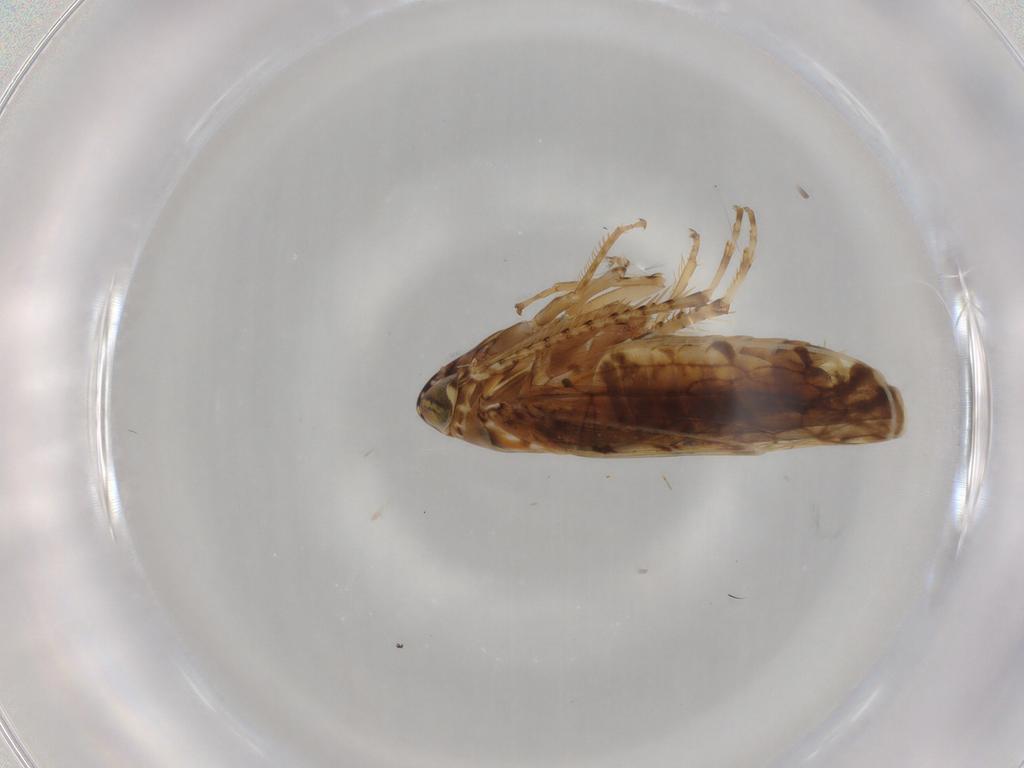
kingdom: Animalia
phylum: Arthropoda
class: Insecta
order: Hemiptera
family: Cicadellidae
